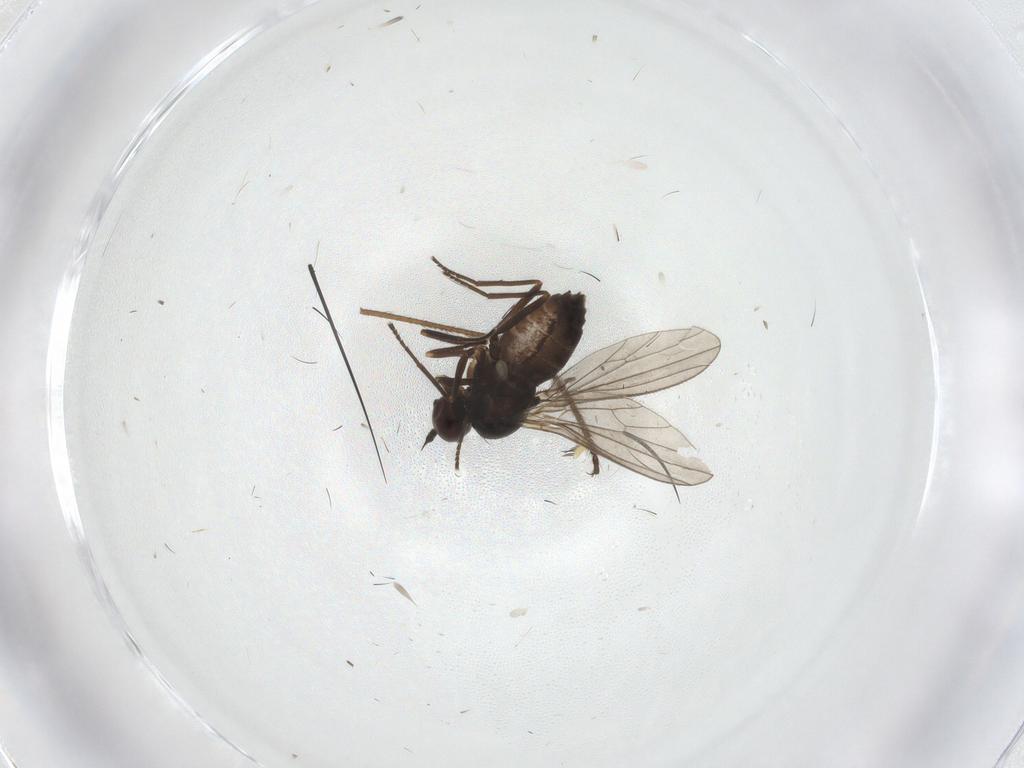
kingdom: Animalia
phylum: Arthropoda
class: Insecta
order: Diptera
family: Dolichopodidae
